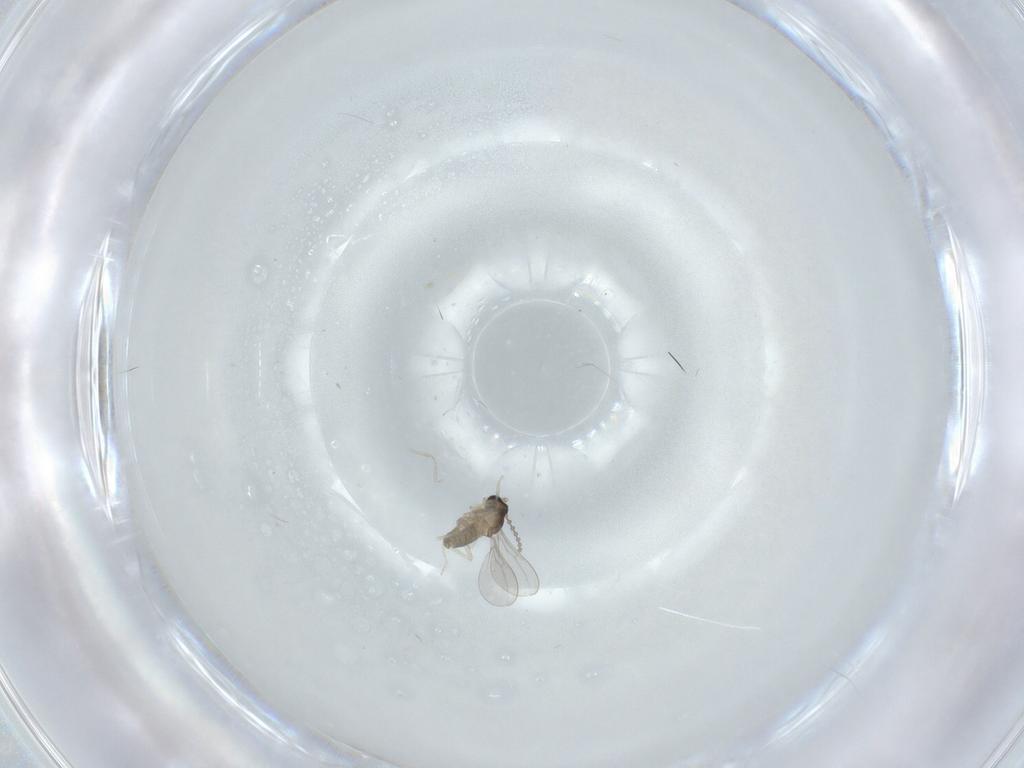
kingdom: Animalia
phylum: Arthropoda
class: Insecta
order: Diptera
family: Cecidomyiidae
